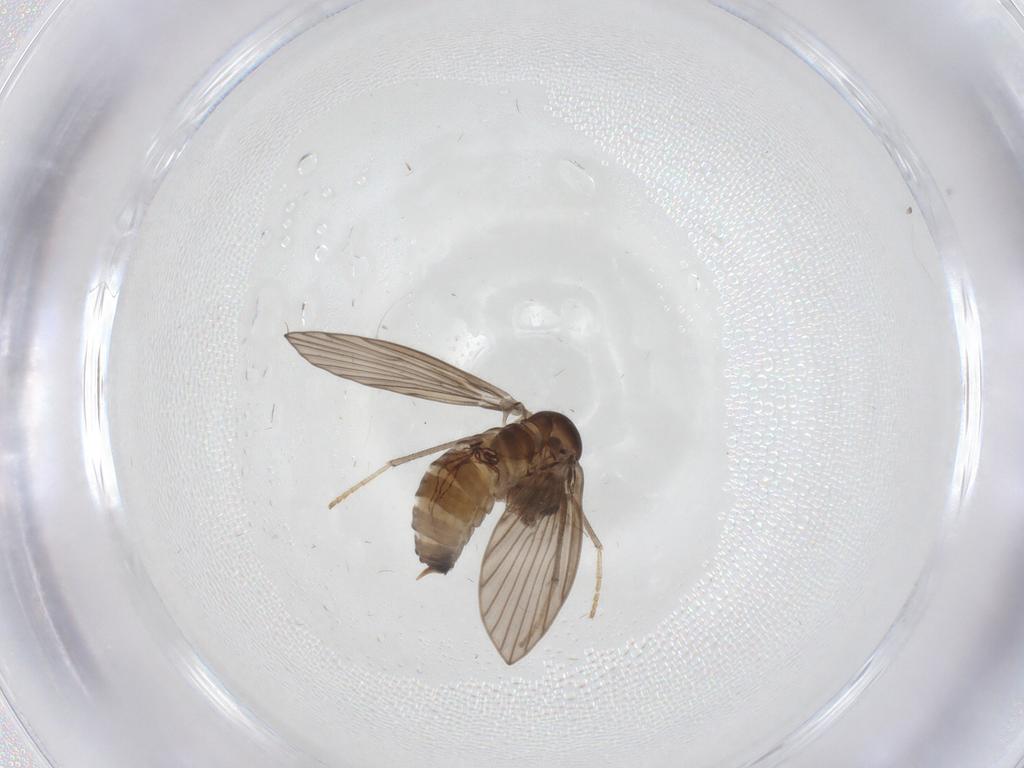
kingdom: Animalia
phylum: Arthropoda
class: Insecta
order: Diptera
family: Psychodidae
